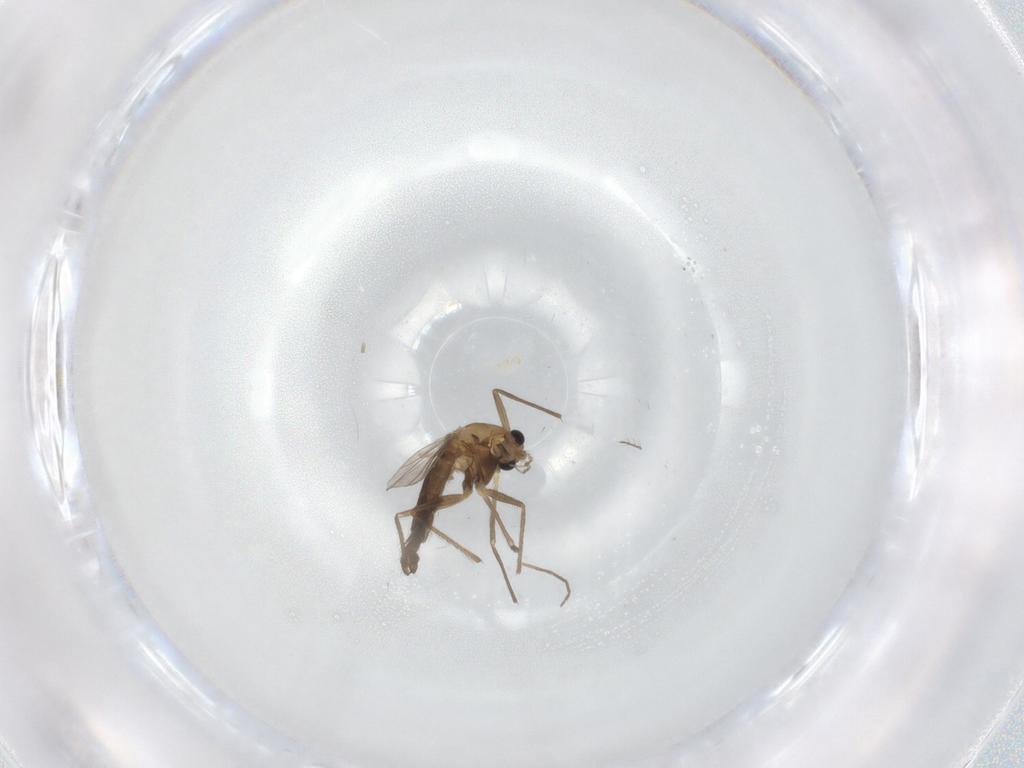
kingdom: Animalia
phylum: Arthropoda
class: Insecta
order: Diptera
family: Chironomidae
